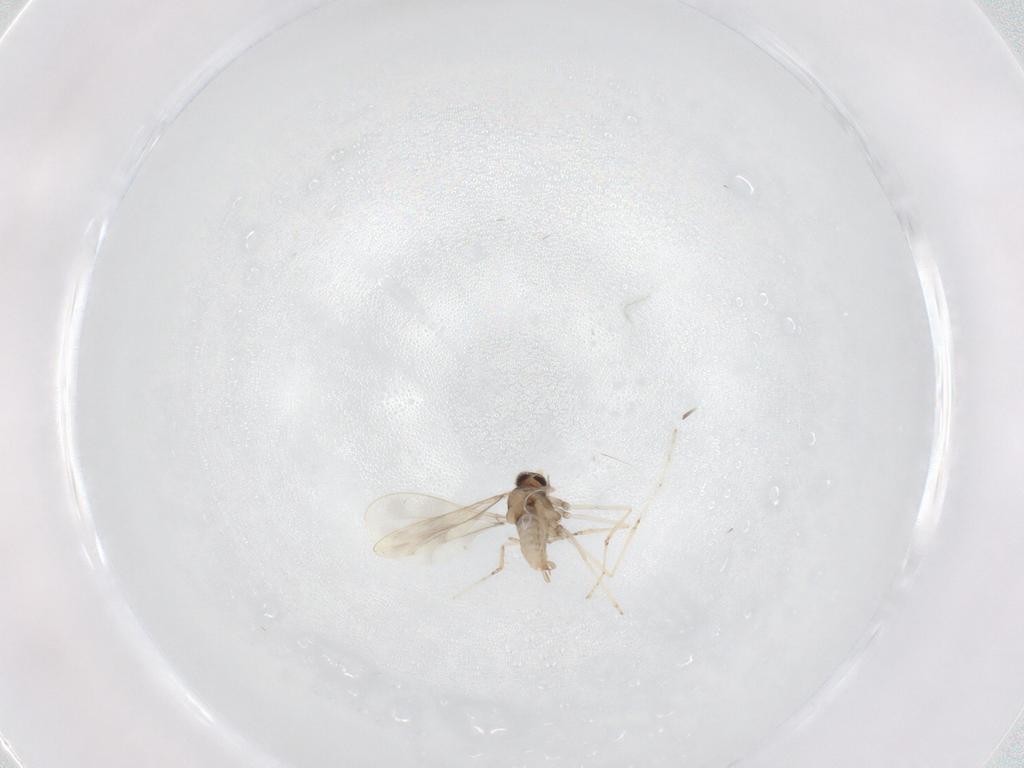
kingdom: Animalia
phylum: Arthropoda
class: Insecta
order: Diptera
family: Cecidomyiidae
